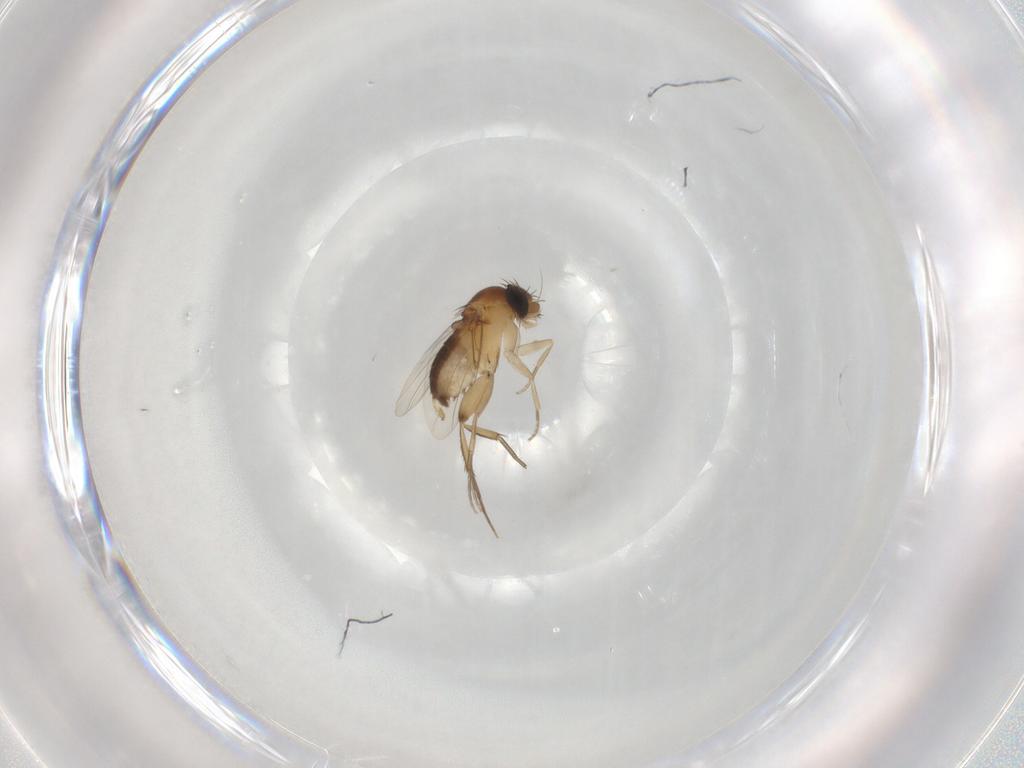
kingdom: Animalia
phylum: Arthropoda
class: Insecta
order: Diptera
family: Phoridae
